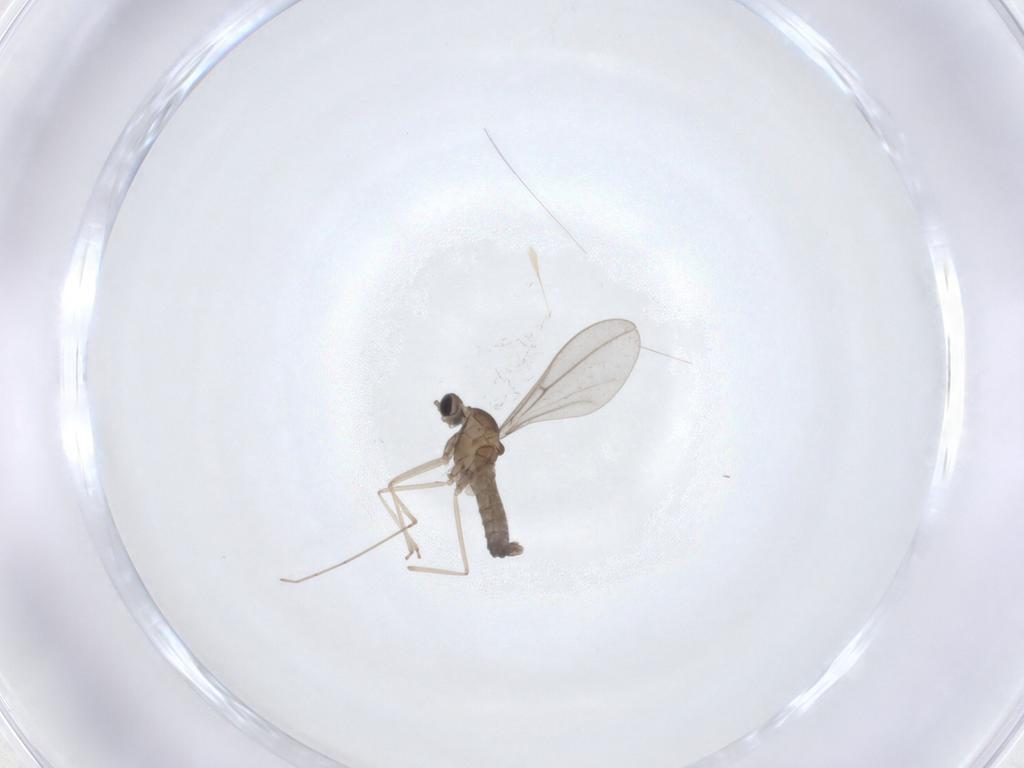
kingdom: Animalia
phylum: Arthropoda
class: Insecta
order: Diptera
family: Cecidomyiidae
